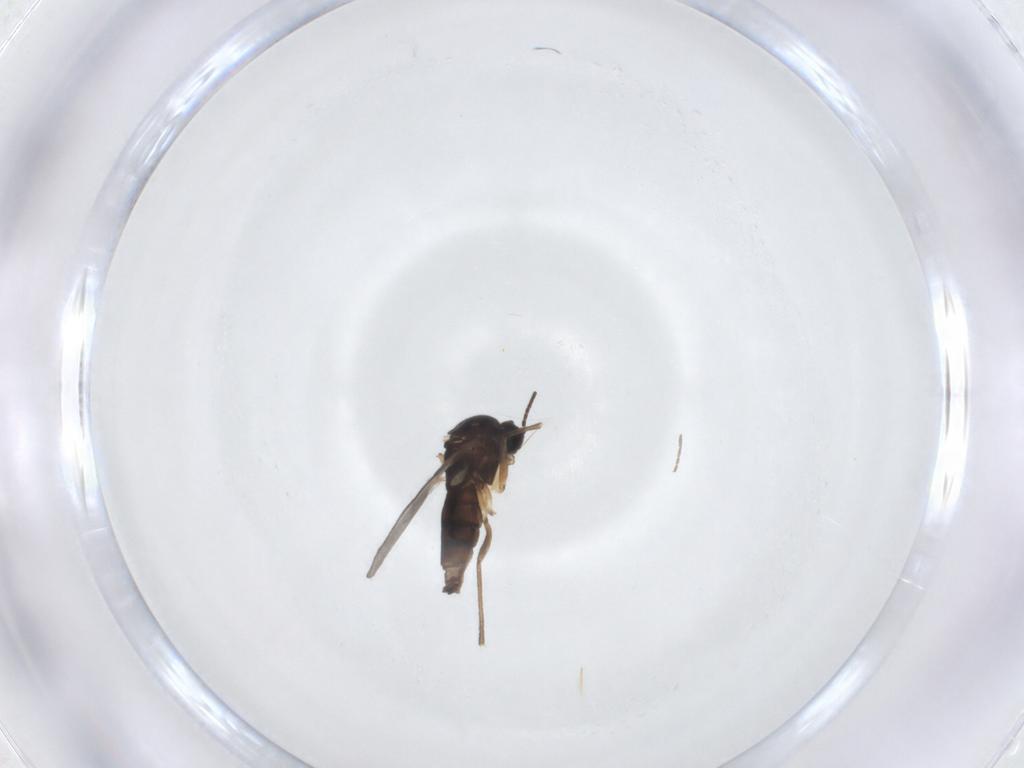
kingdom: Animalia
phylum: Arthropoda
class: Insecta
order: Diptera
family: Sciaridae
